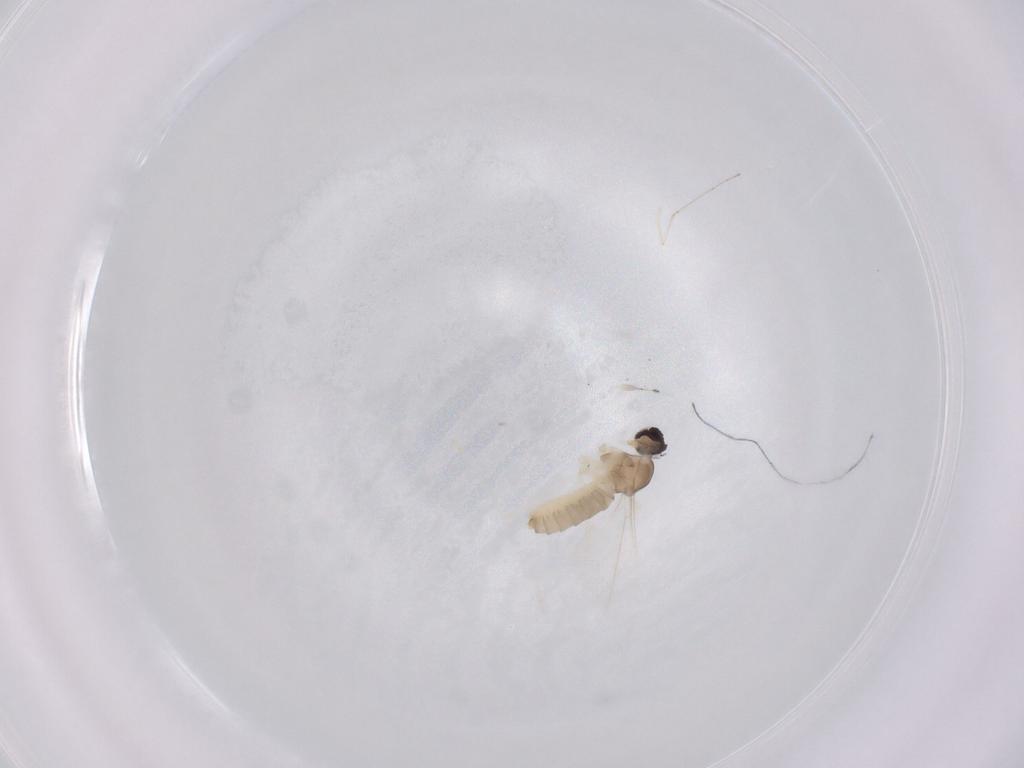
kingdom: Animalia
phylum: Arthropoda
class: Insecta
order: Diptera
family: Cecidomyiidae
